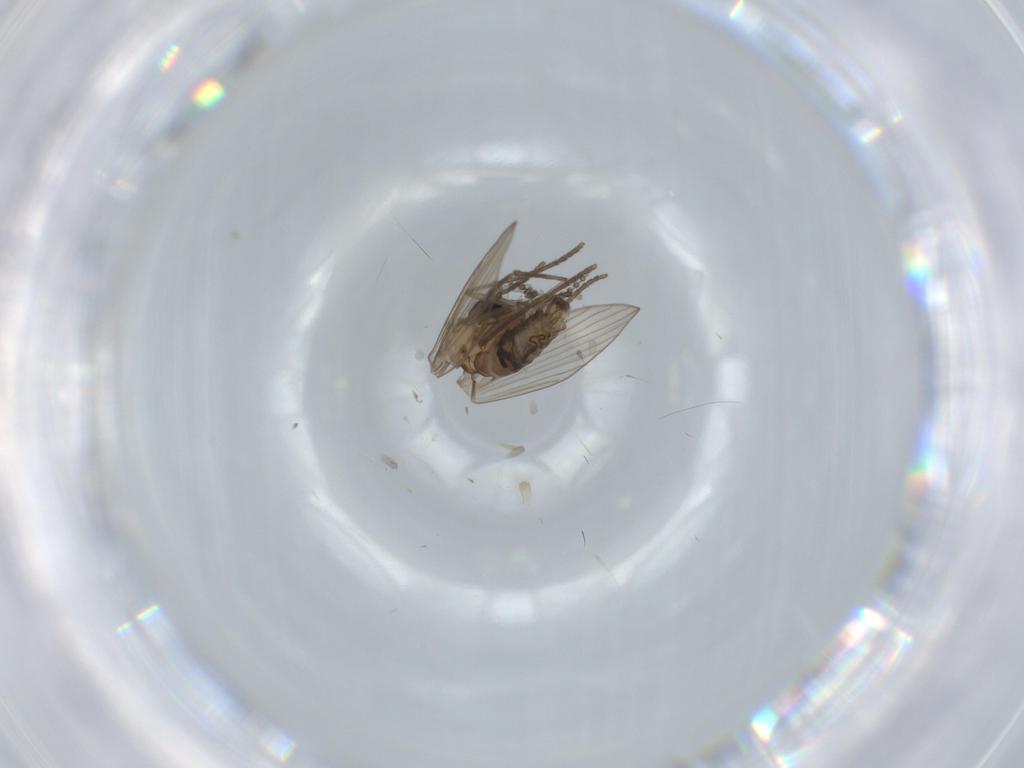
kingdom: Animalia
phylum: Arthropoda
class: Insecta
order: Diptera
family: Psychodidae
